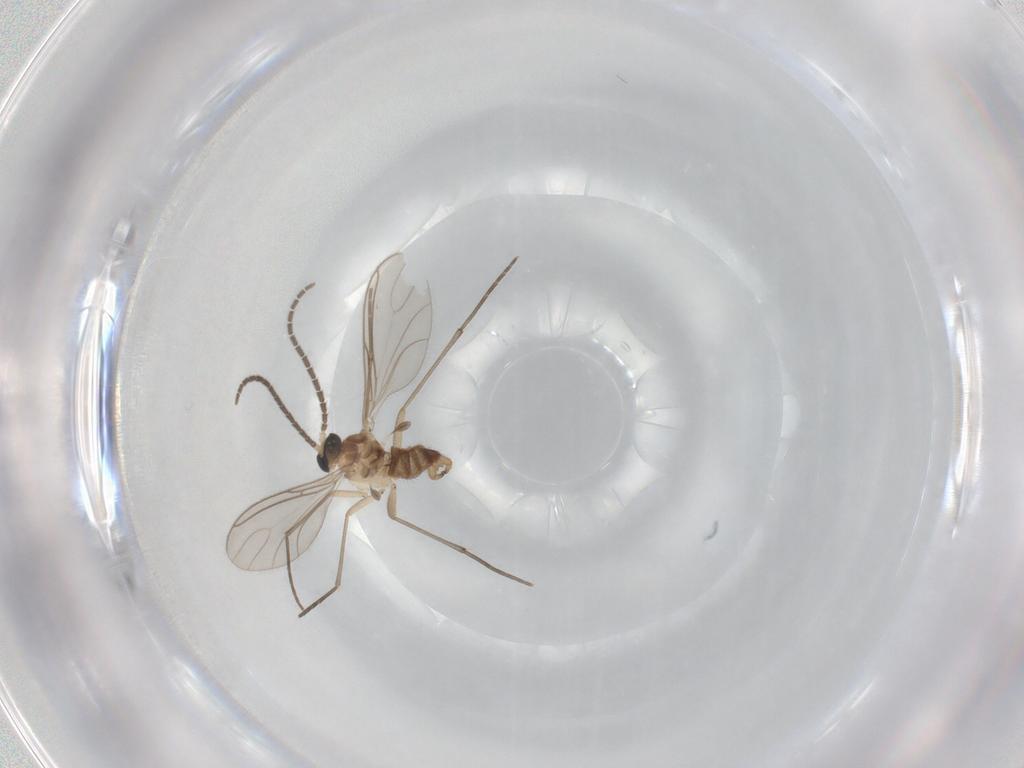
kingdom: Animalia
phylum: Arthropoda
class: Insecta
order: Diptera
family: Sciaridae
